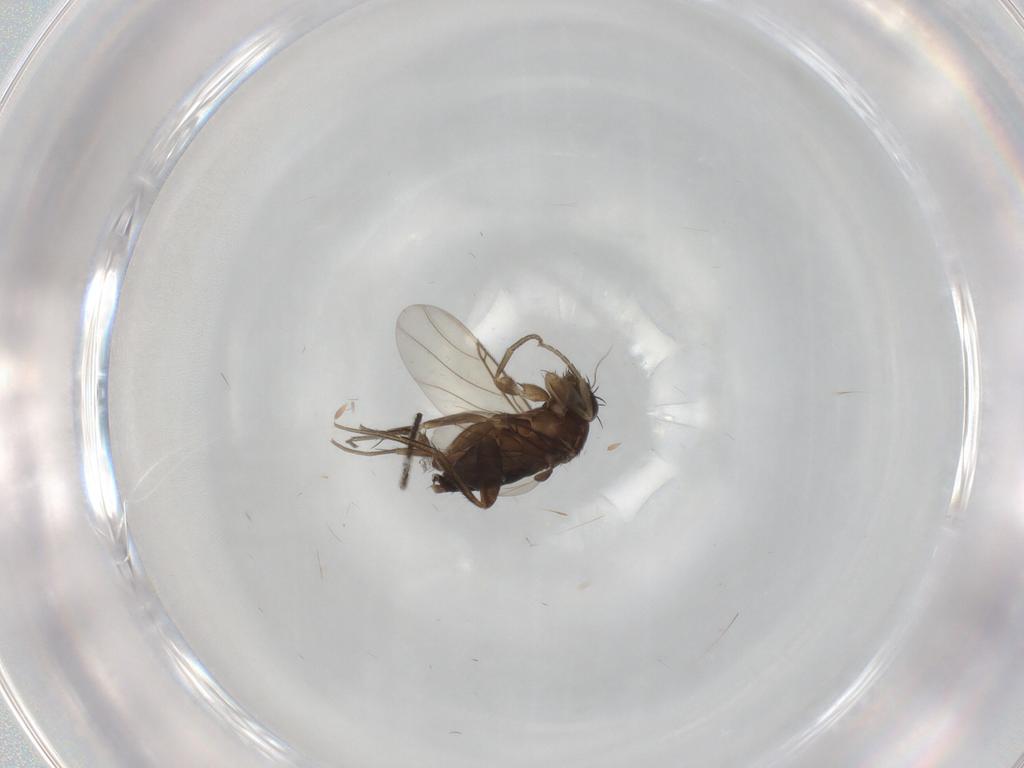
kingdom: Animalia
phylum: Arthropoda
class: Insecta
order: Diptera
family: Phoridae
